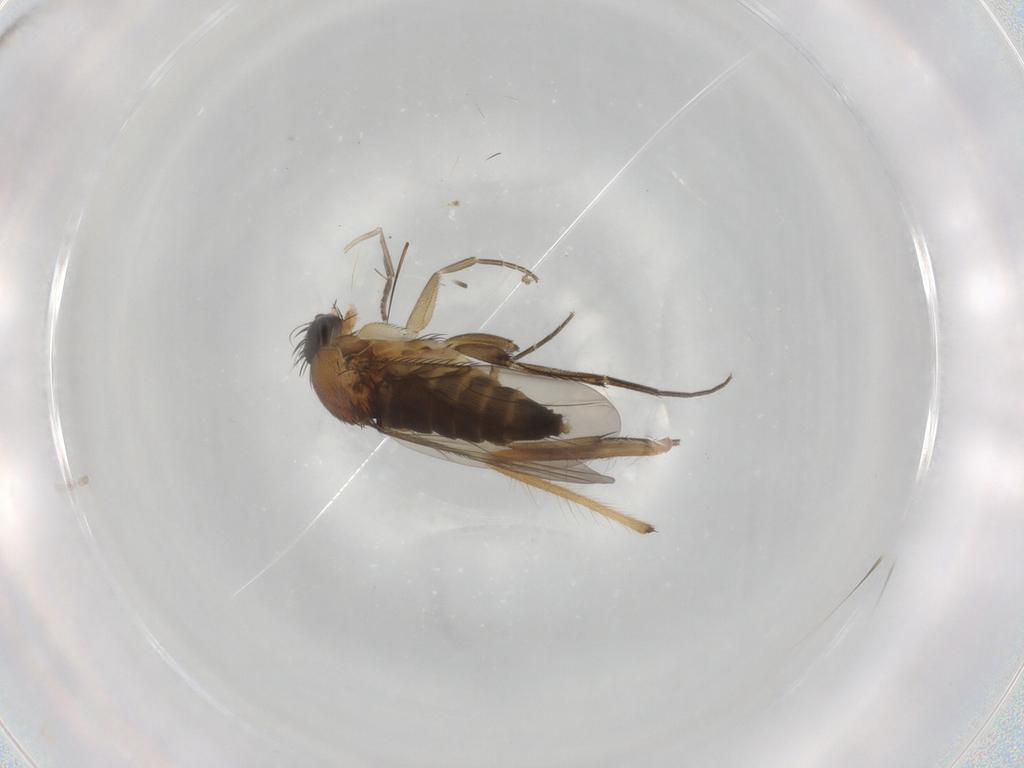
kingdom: Animalia
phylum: Arthropoda
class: Insecta
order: Diptera
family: Phoridae
